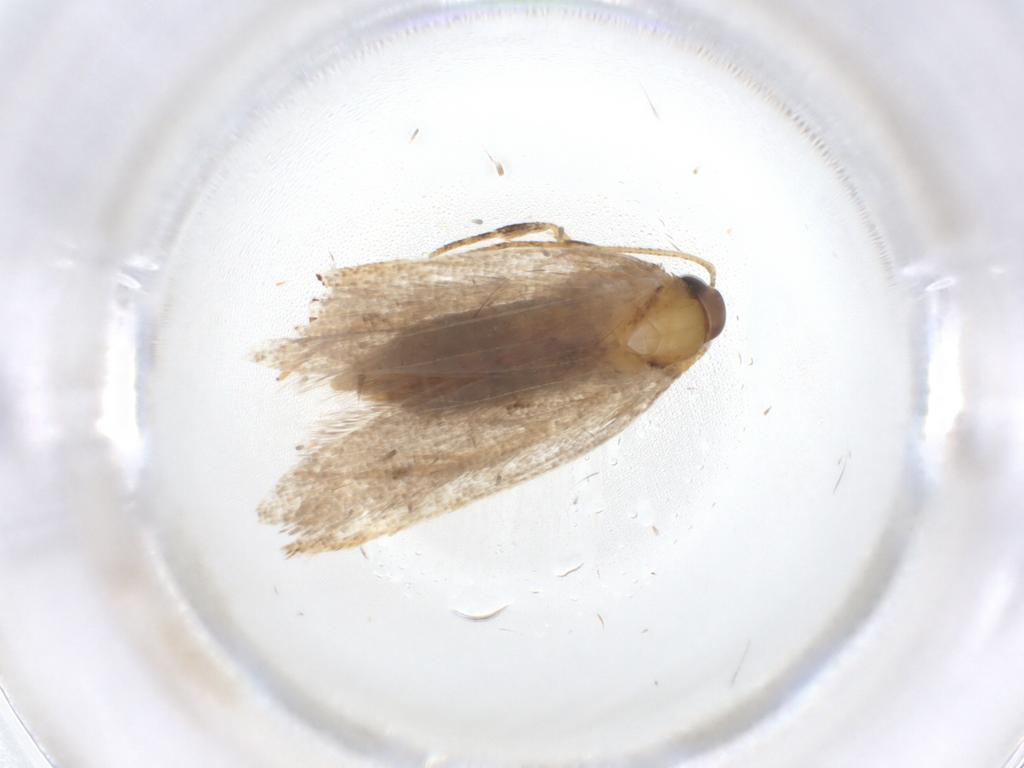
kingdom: Animalia
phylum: Arthropoda
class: Insecta
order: Lepidoptera
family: Oecophoridae
